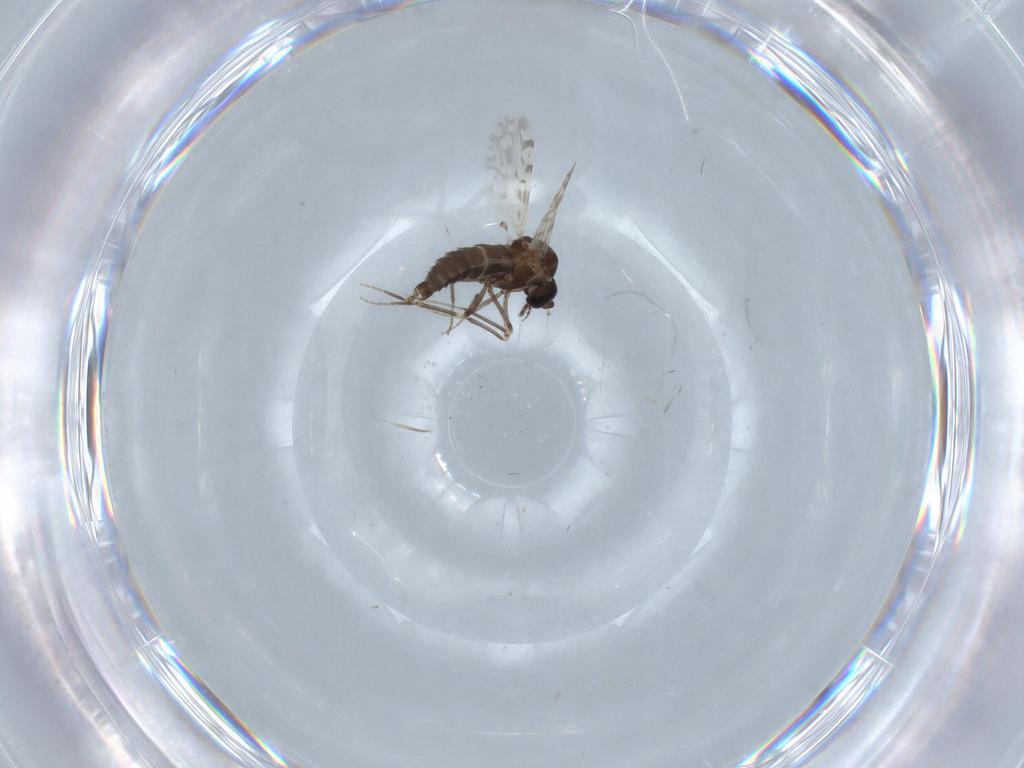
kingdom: Animalia
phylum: Arthropoda
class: Insecta
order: Diptera
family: Ceratopogonidae
